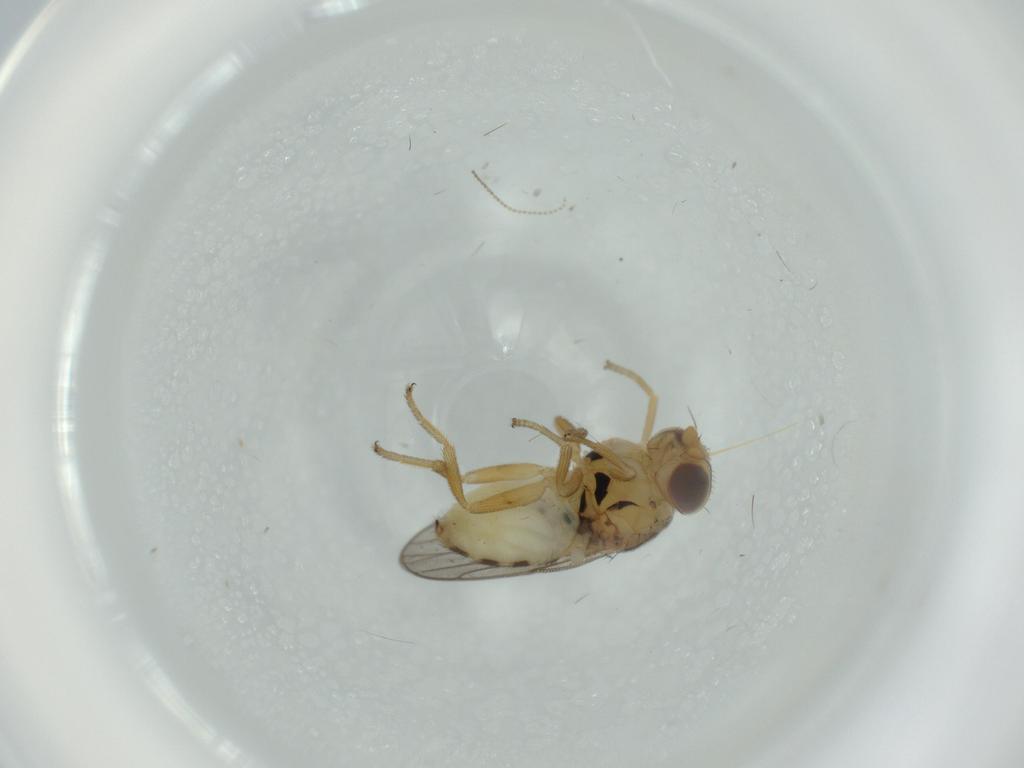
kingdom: Animalia
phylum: Arthropoda
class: Insecta
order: Diptera
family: Chloropidae
